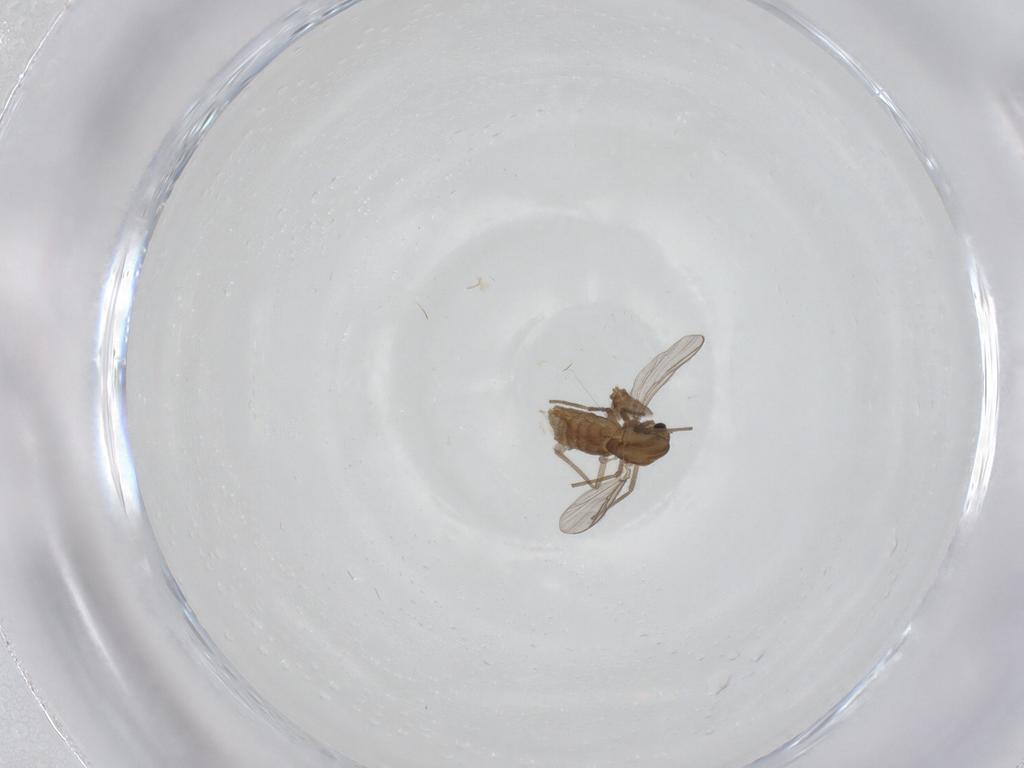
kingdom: Animalia
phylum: Arthropoda
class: Insecta
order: Diptera
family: Chironomidae
